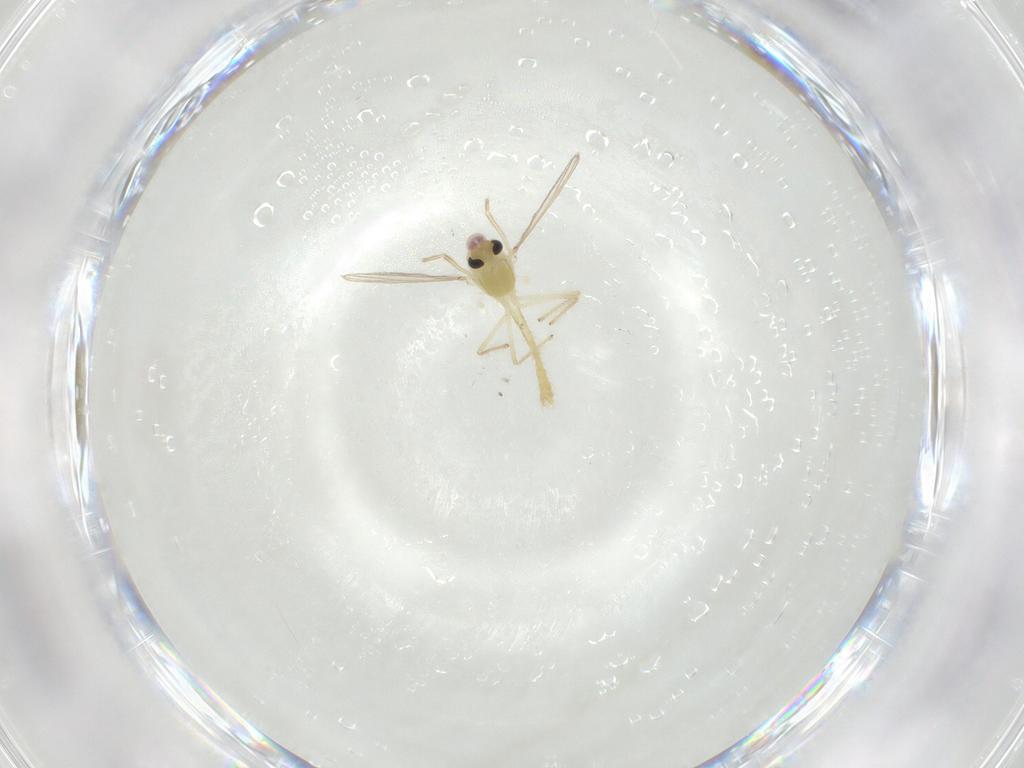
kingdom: Animalia
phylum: Arthropoda
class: Insecta
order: Diptera
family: Chironomidae
